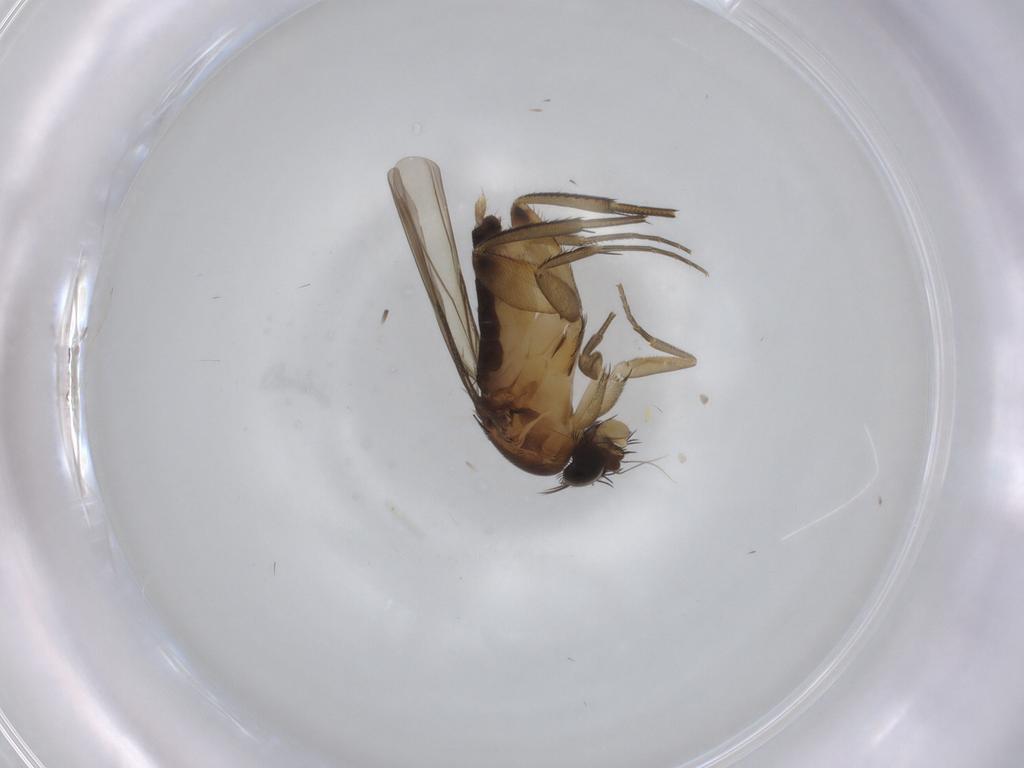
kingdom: Animalia
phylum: Arthropoda
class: Insecta
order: Diptera
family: Phoridae
